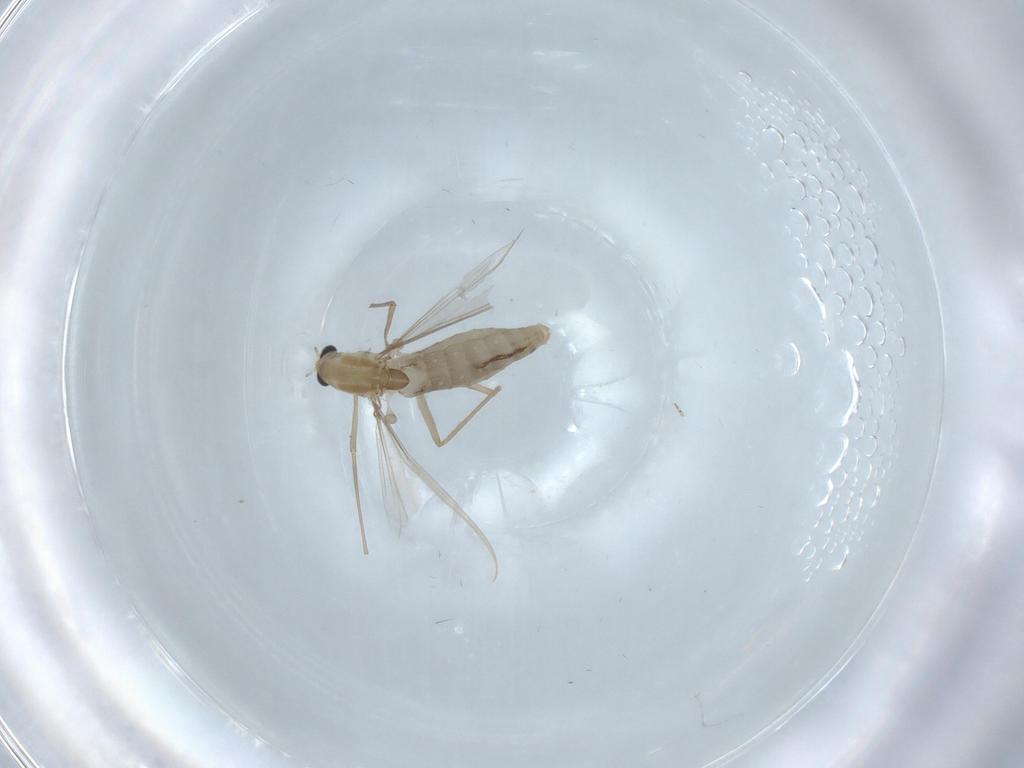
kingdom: Animalia
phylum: Arthropoda
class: Insecta
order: Diptera
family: Chironomidae
